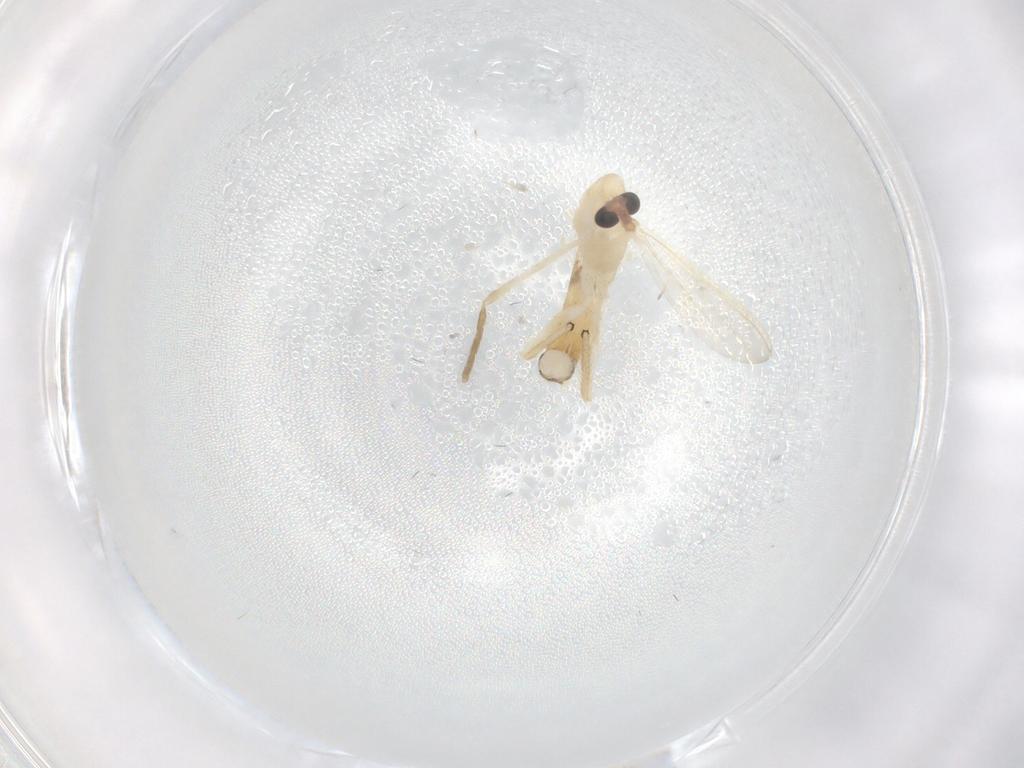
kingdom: Animalia
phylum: Arthropoda
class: Insecta
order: Diptera
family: Chironomidae
